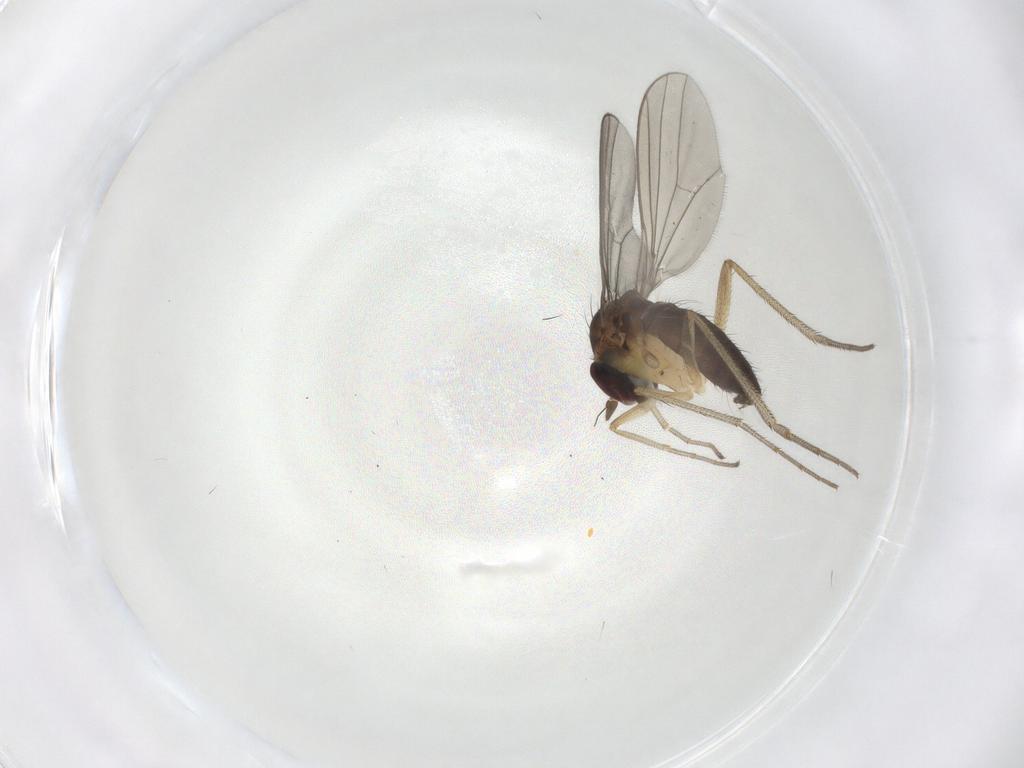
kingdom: Animalia
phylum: Arthropoda
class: Insecta
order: Diptera
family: Dolichopodidae
